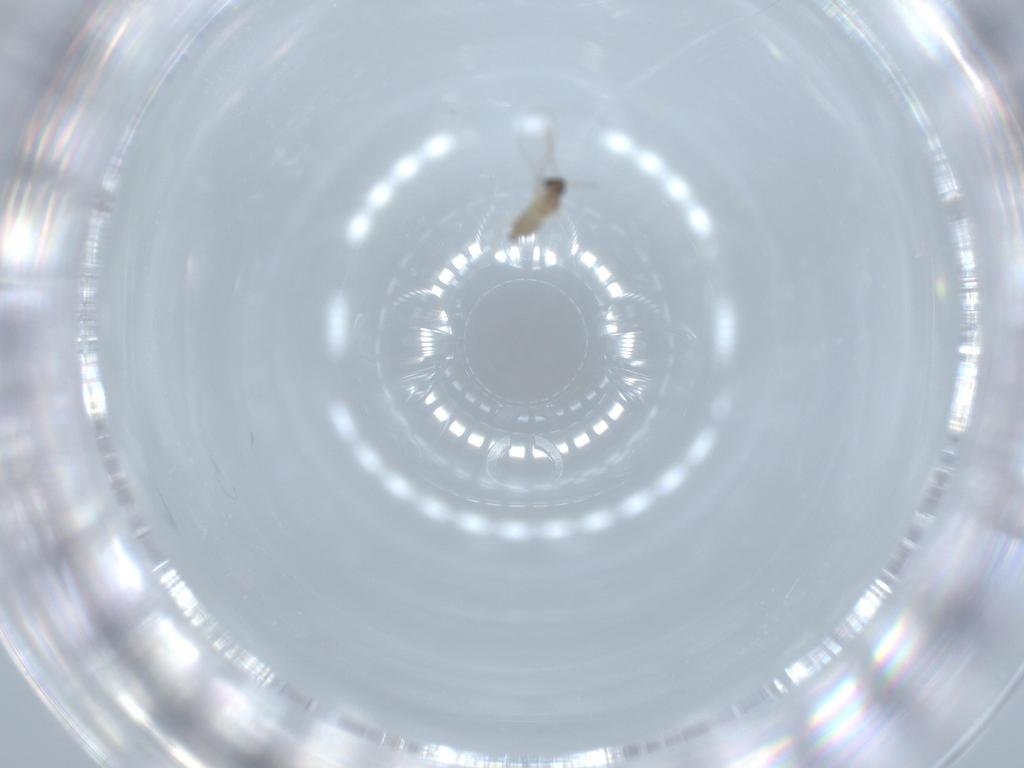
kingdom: Animalia
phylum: Arthropoda
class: Insecta
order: Diptera
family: Cecidomyiidae
